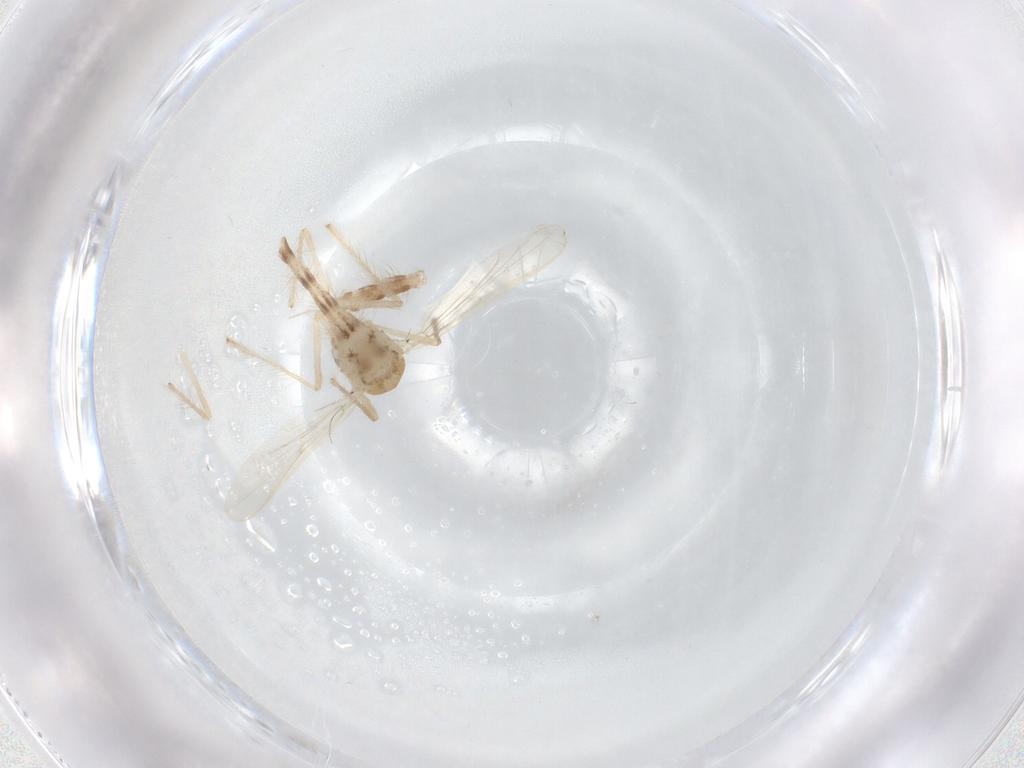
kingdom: Animalia
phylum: Arthropoda
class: Insecta
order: Diptera
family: Chironomidae
